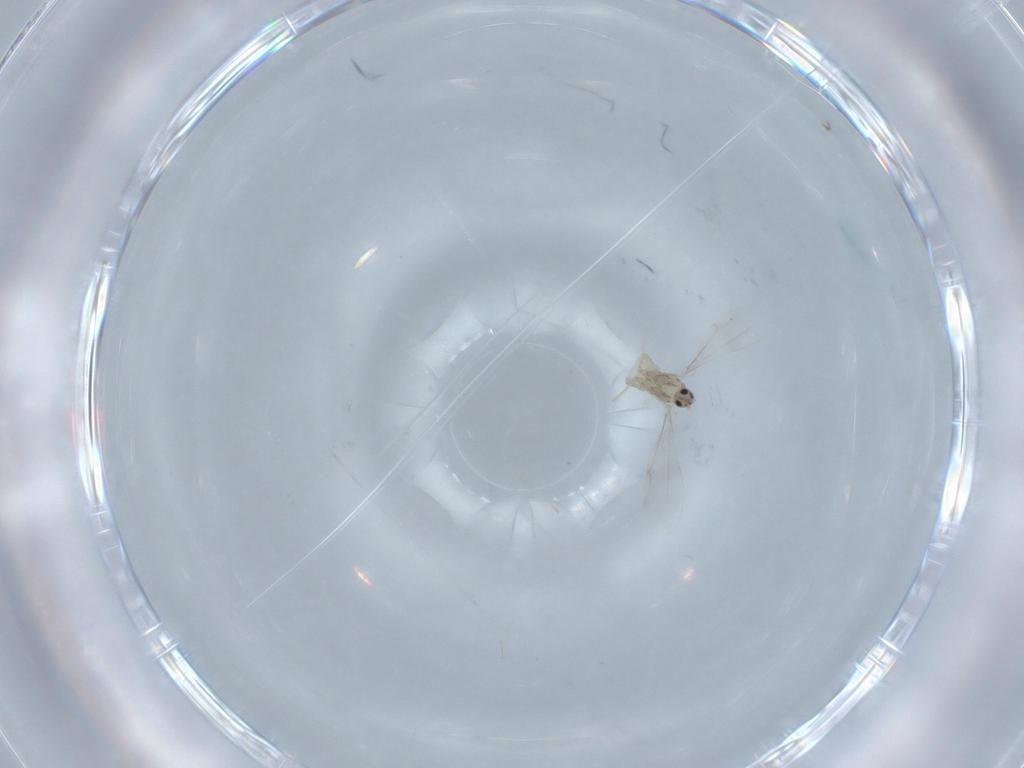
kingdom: Animalia
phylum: Arthropoda
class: Insecta
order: Diptera
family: Cecidomyiidae
